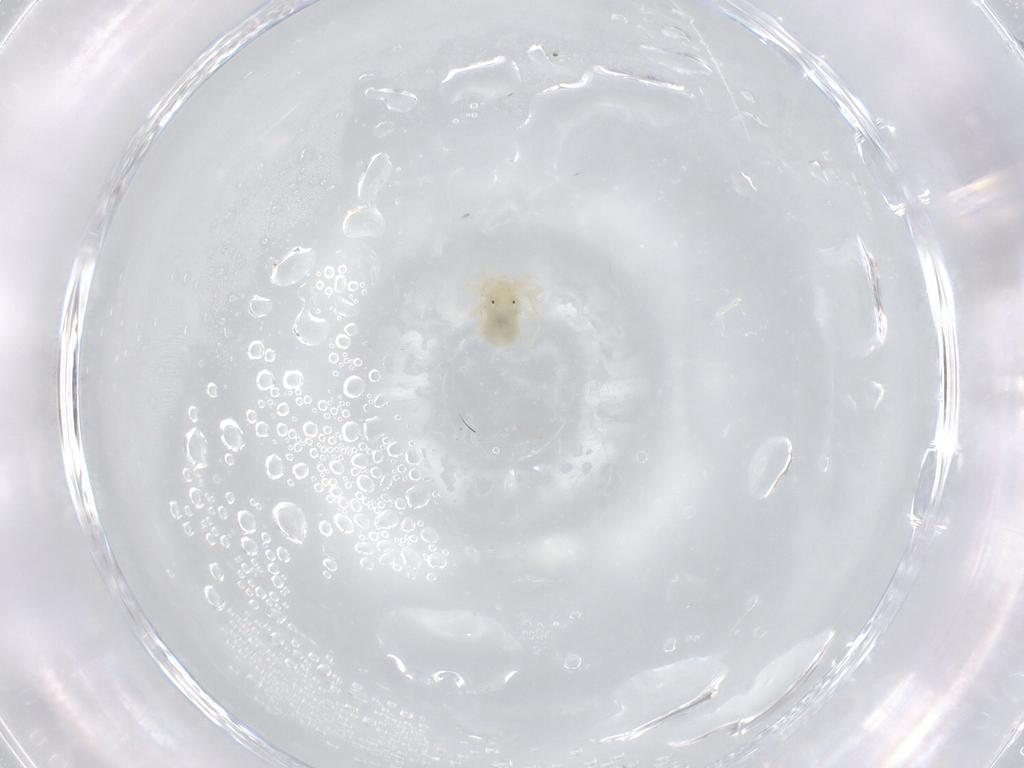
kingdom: Animalia
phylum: Arthropoda
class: Arachnida
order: Trombidiformes
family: Anystidae
